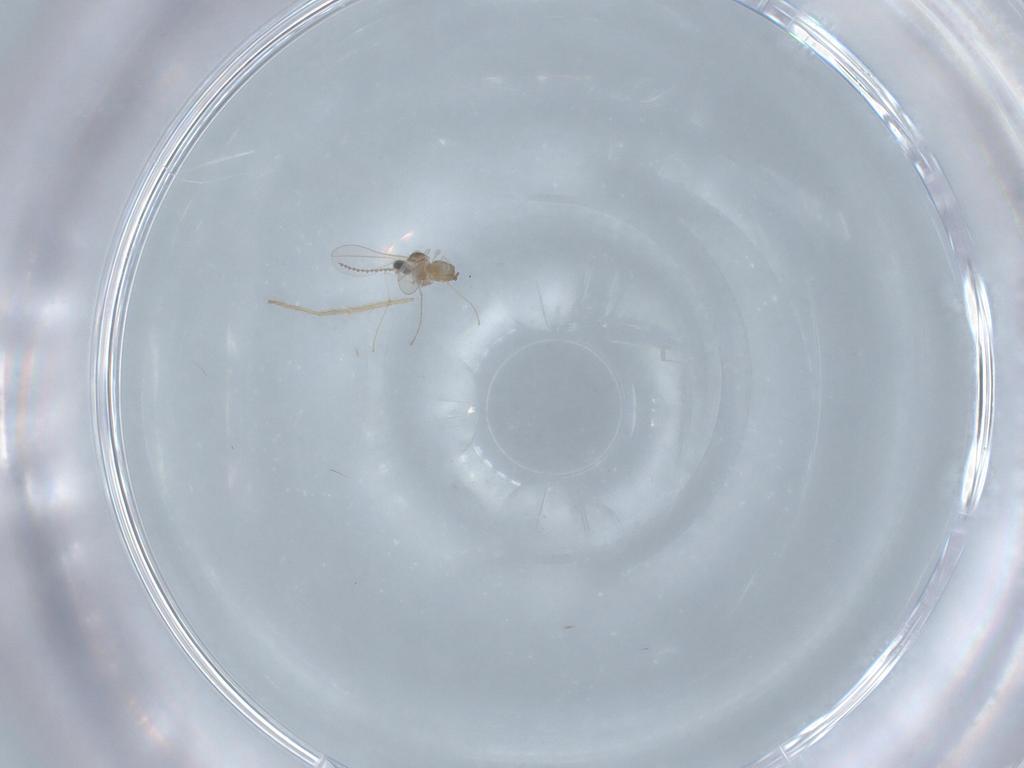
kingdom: Animalia
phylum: Arthropoda
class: Insecta
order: Diptera
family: Cecidomyiidae
